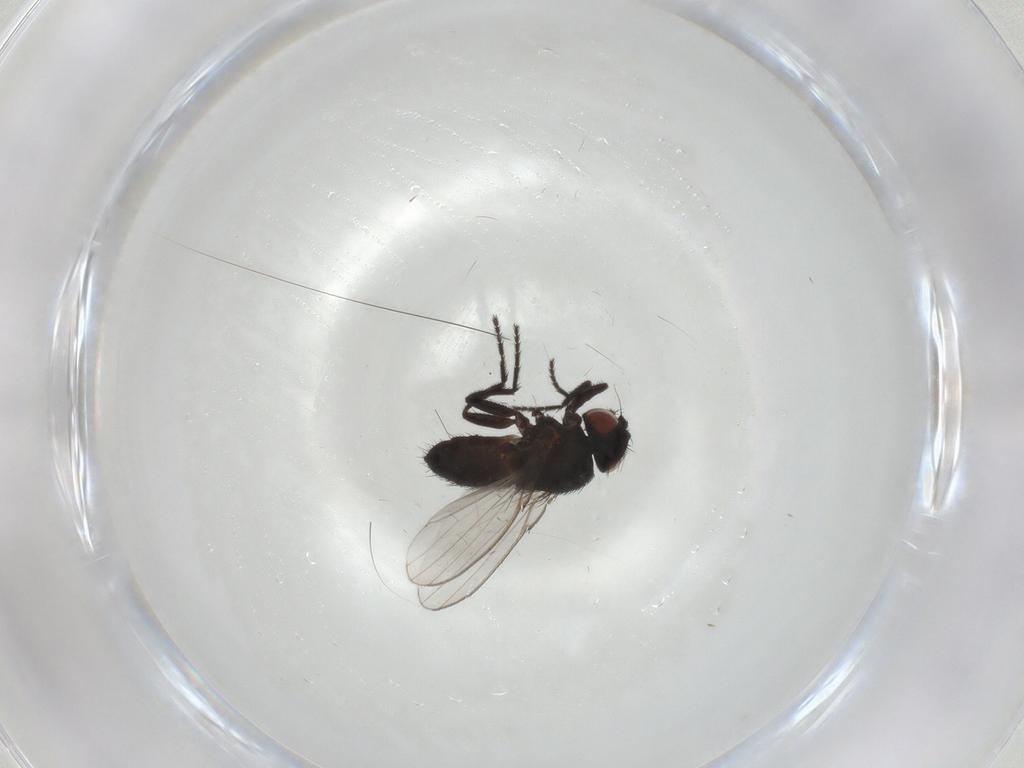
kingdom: Animalia
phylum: Arthropoda
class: Insecta
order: Diptera
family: Milichiidae
